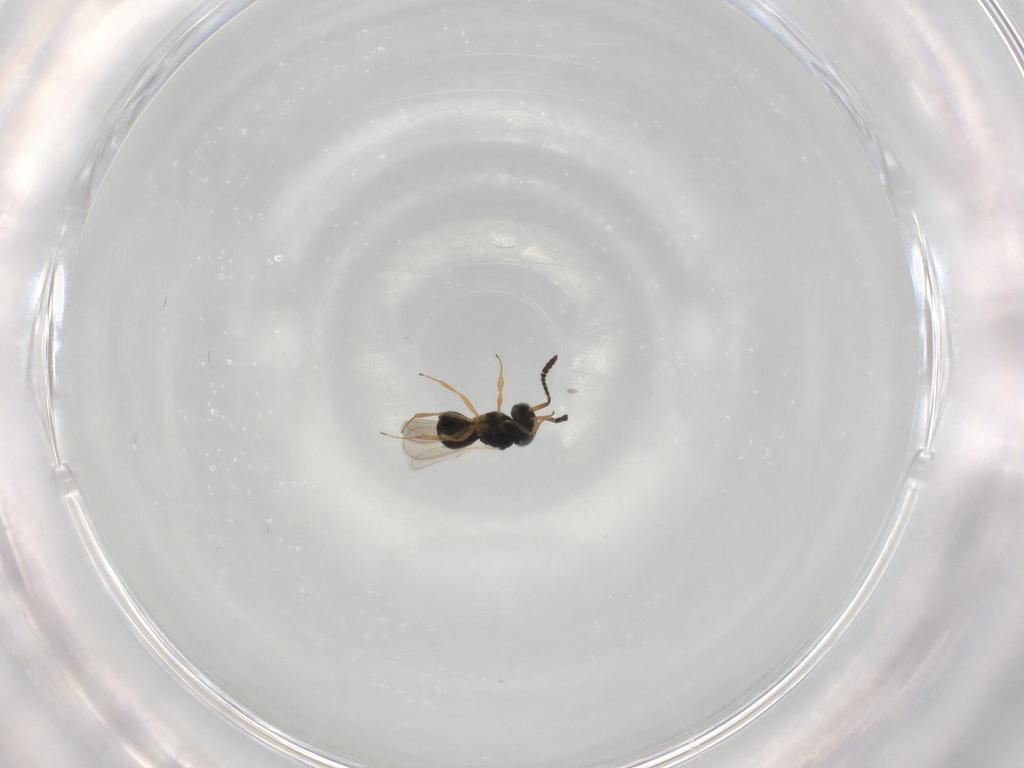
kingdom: Animalia
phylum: Arthropoda
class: Insecta
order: Hymenoptera
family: Scelionidae
